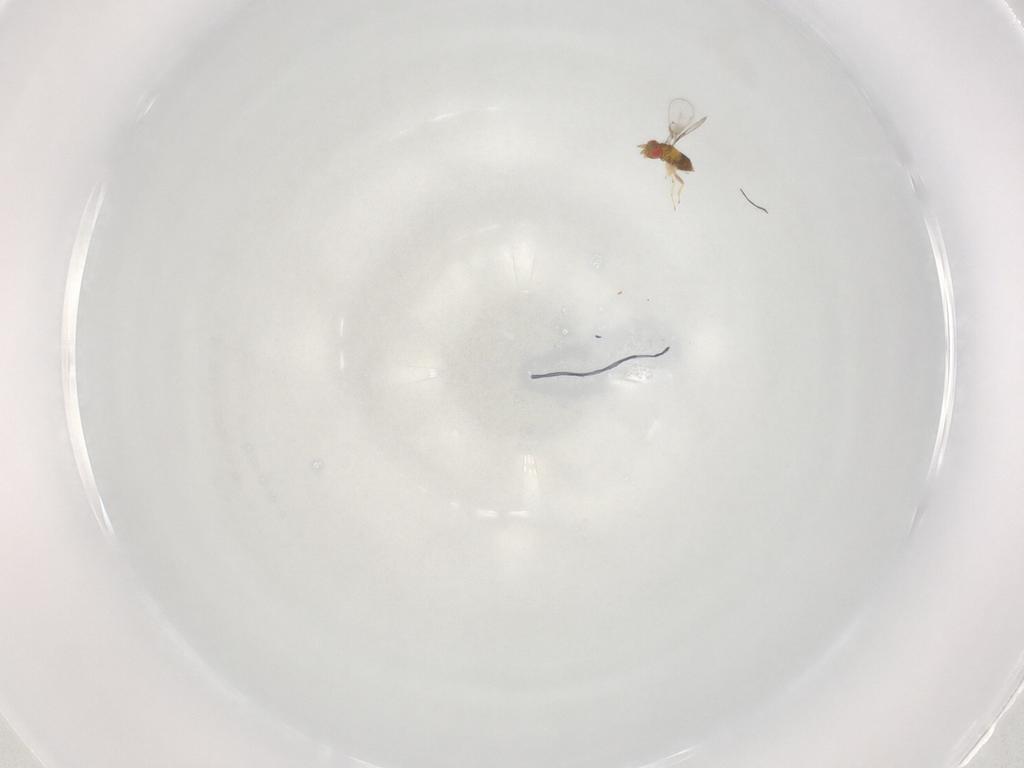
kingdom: Animalia
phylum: Arthropoda
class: Insecta
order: Hymenoptera
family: Trichogrammatidae
